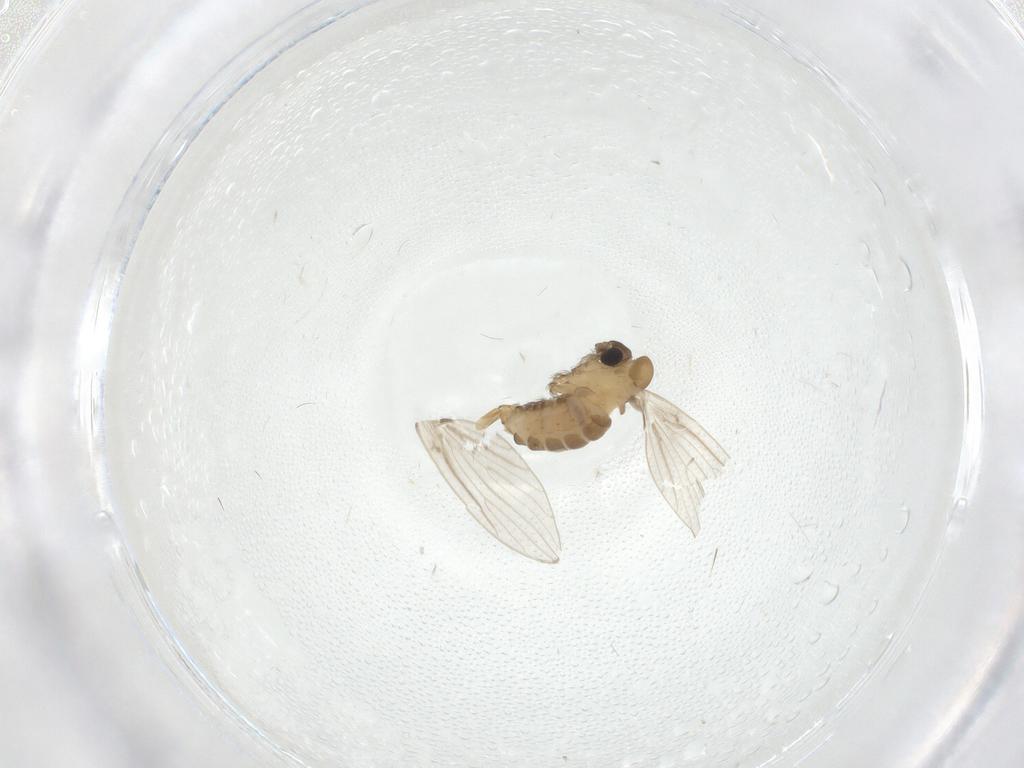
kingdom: Animalia
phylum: Arthropoda
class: Insecta
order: Diptera
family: Psychodidae
